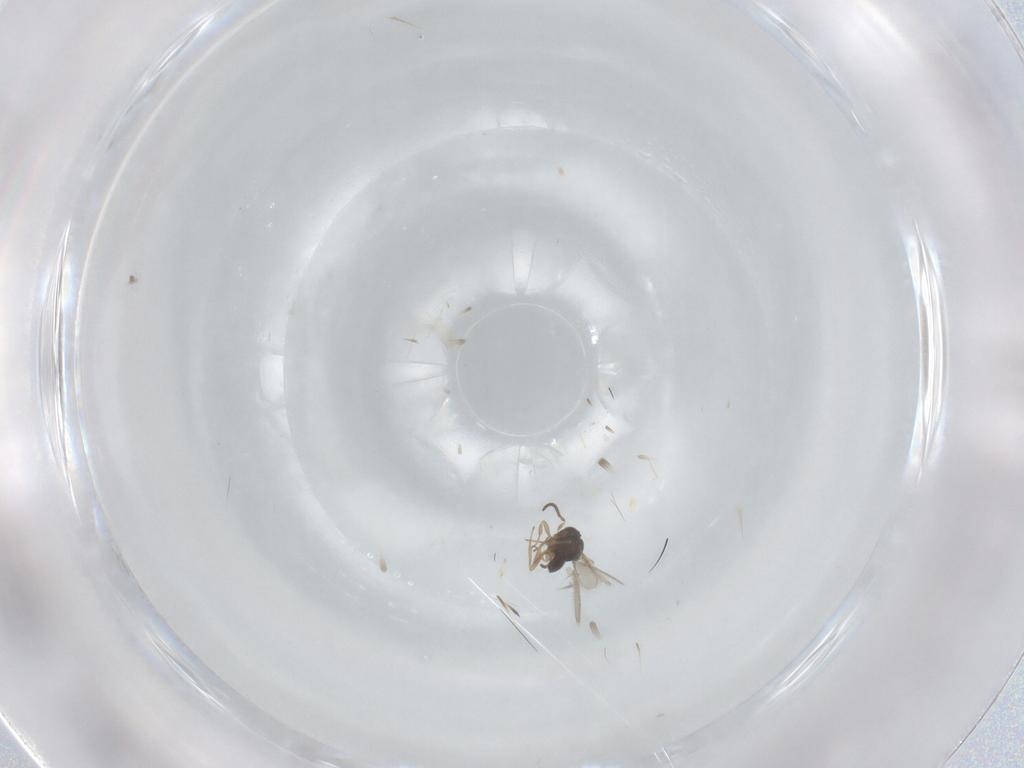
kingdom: Animalia
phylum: Arthropoda
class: Insecta
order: Hymenoptera
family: Scelionidae
